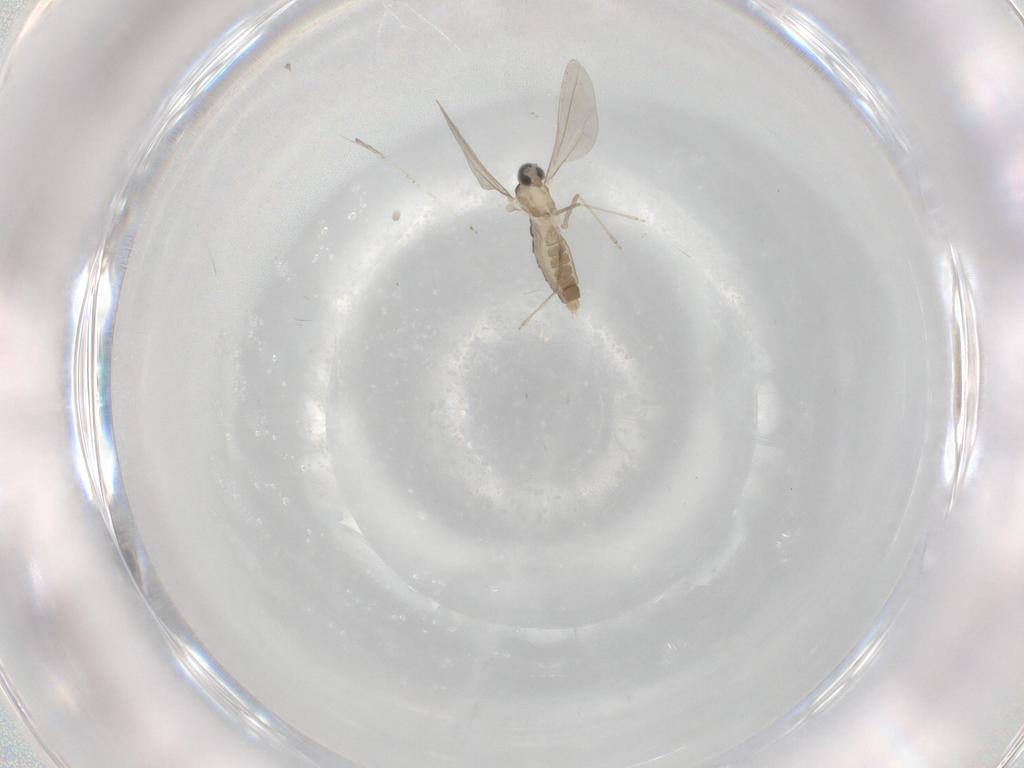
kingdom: Animalia
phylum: Arthropoda
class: Insecta
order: Diptera
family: Cecidomyiidae
